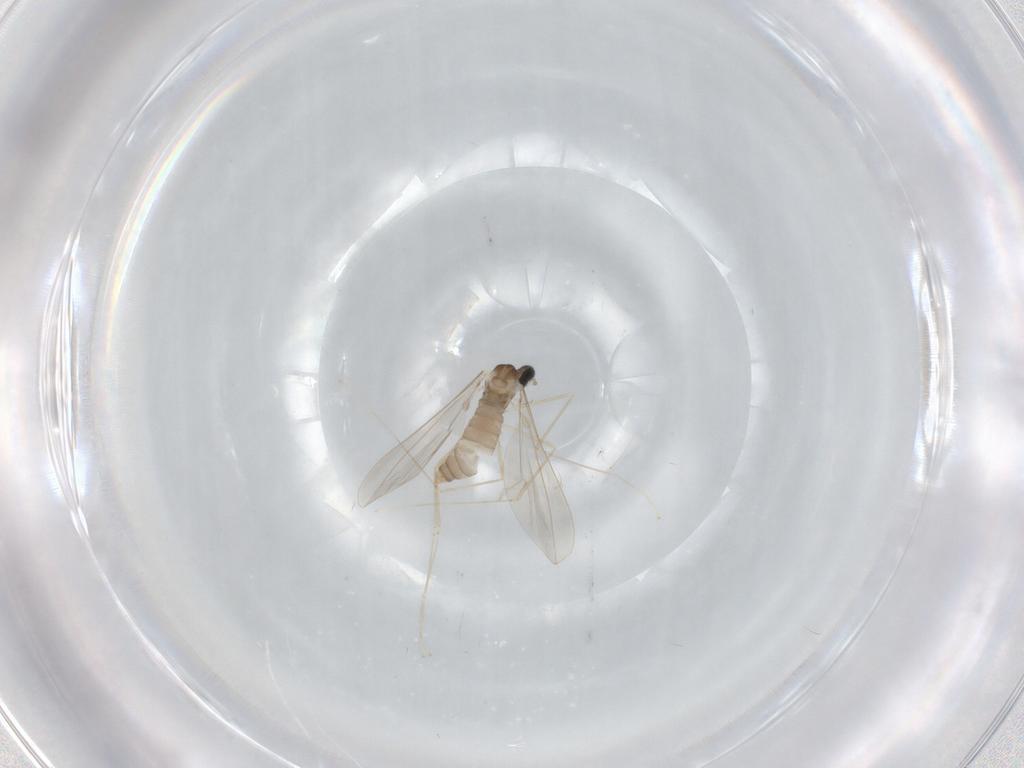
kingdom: Animalia
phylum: Arthropoda
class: Insecta
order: Diptera
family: Cecidomyiidae
